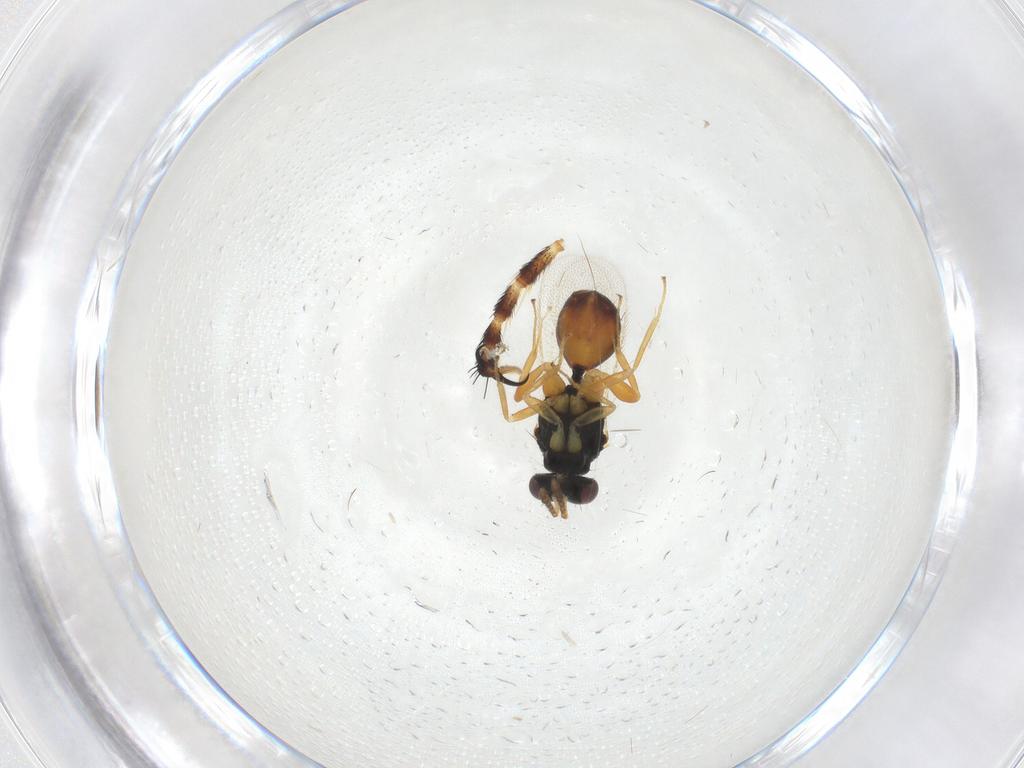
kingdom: Animalia
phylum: Arthropoda
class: Insecta
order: Hymenoptera
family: Eulophidae
